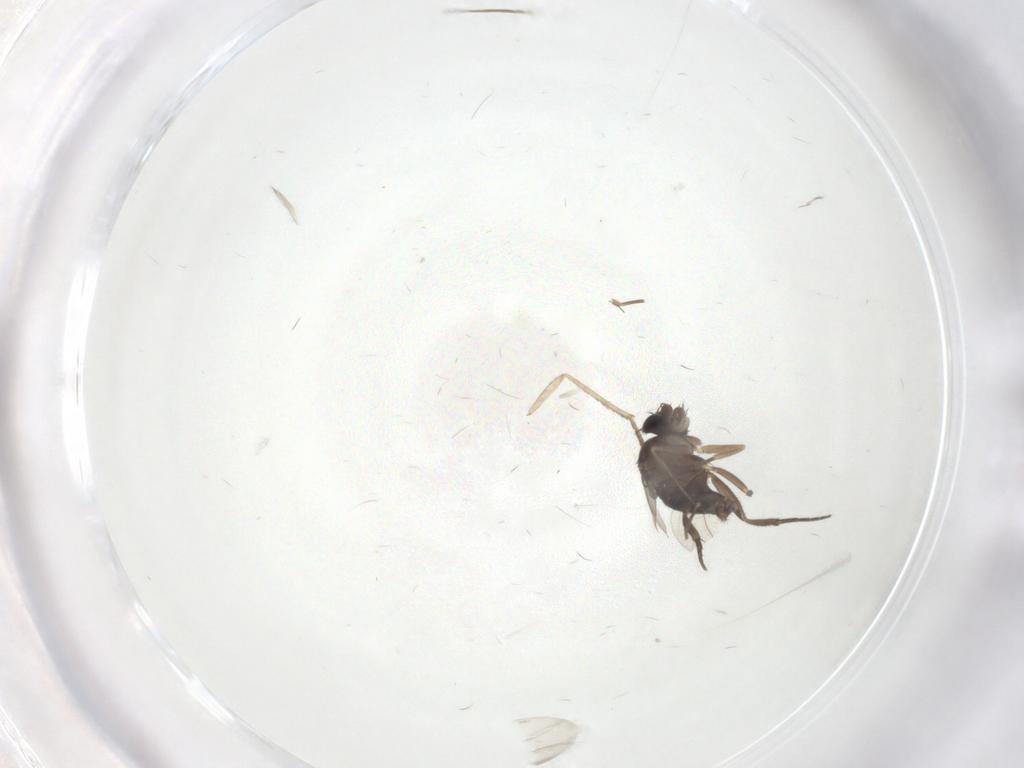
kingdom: Animalia
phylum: Arthropoda
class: Insecta
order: Diptera
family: Phoridae
